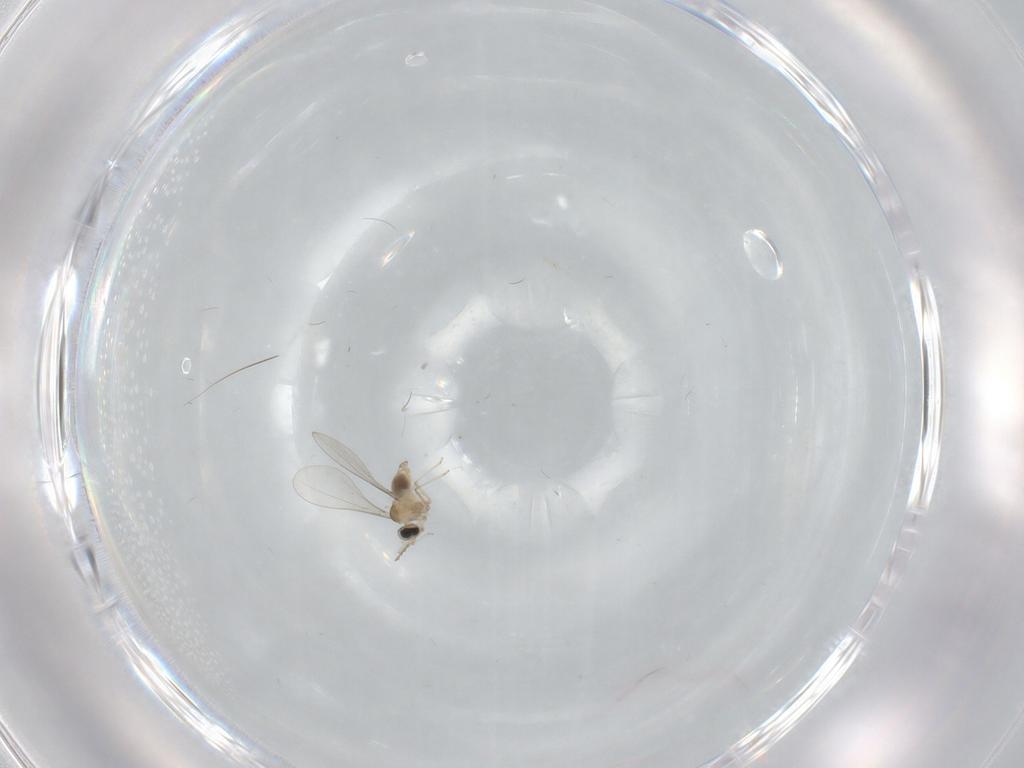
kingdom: Animalia
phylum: Arthropoda
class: Insecta
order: Diptera
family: Cecidomyiidae
